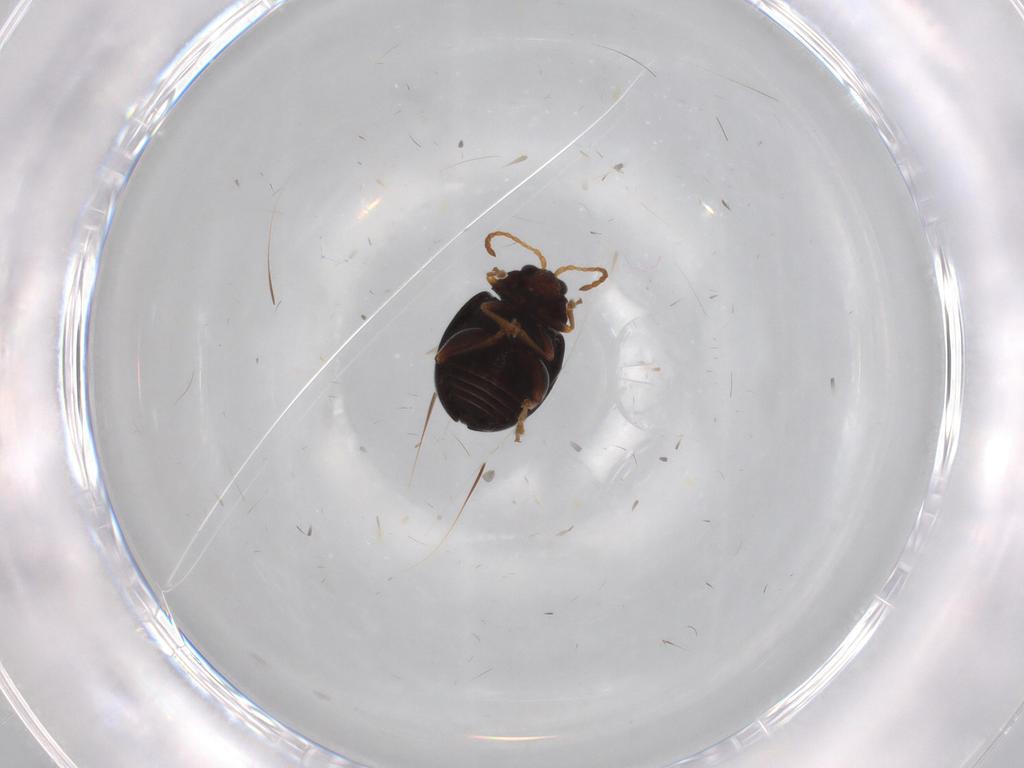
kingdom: Animalia
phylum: Arthropoda
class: Insecta
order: Coleoptera
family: Chrysomelidae
